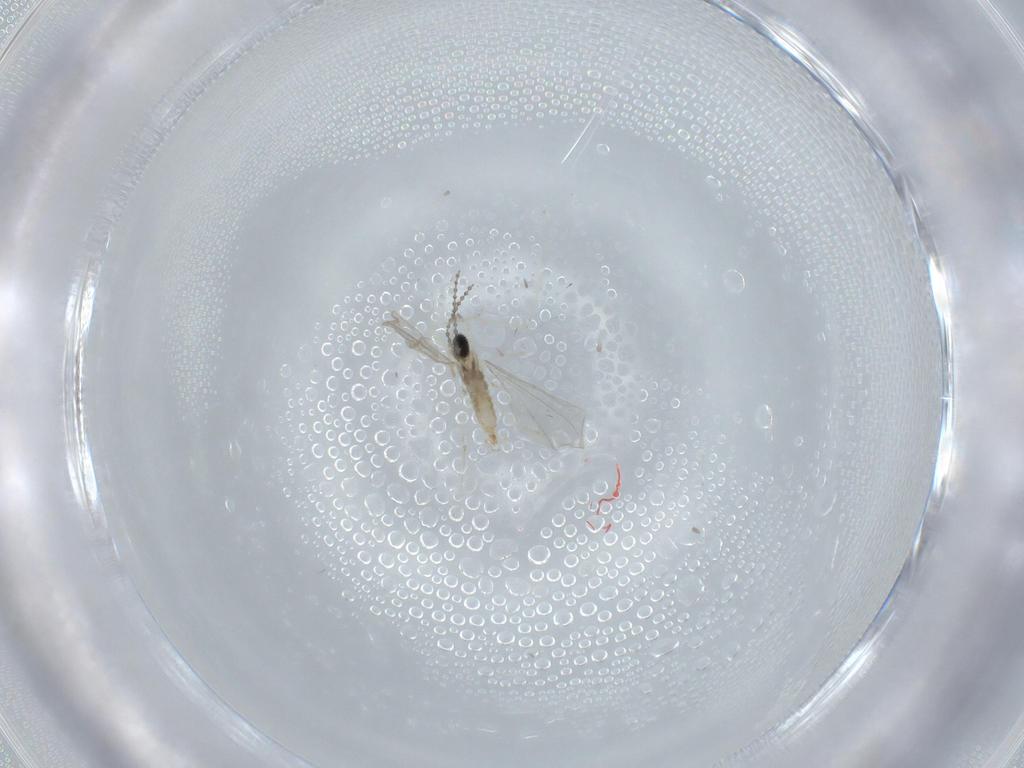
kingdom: Animalia
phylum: Arthropoda
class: Insecta
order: Diptera
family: Cecidomyiidae
